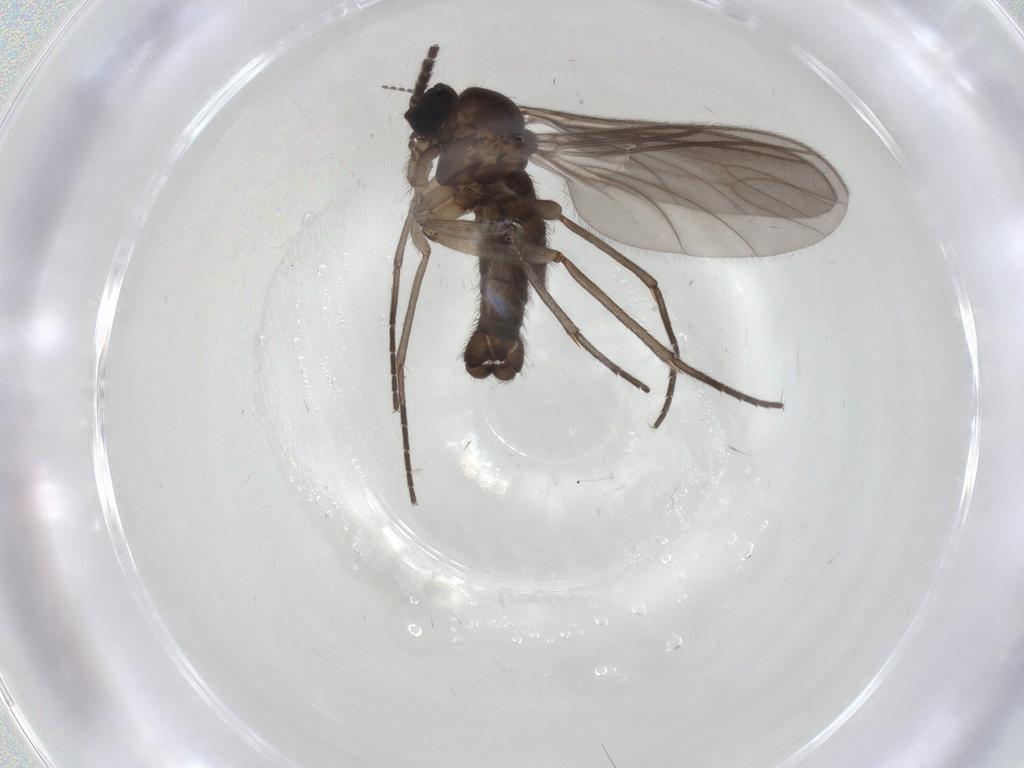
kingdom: Animalia
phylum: Arthropoda
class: Insecta
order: Diptera
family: Sciaridae
